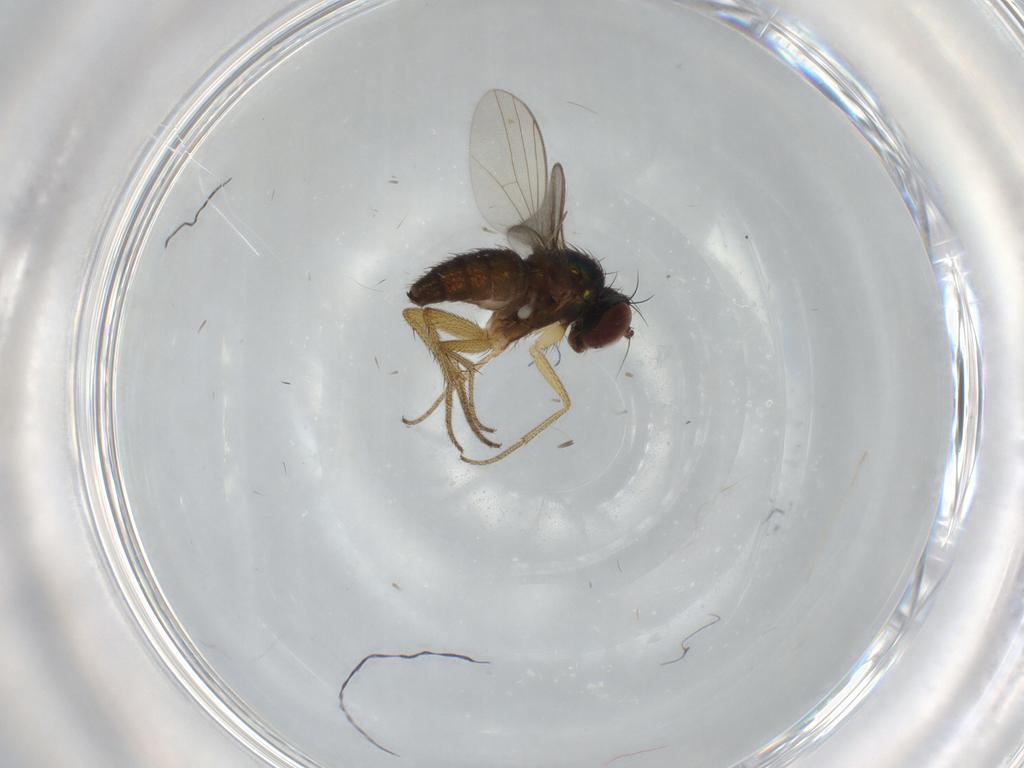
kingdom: Animalia
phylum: Arthropoda
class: Insecta
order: Diptera
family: Dolichopodidae
